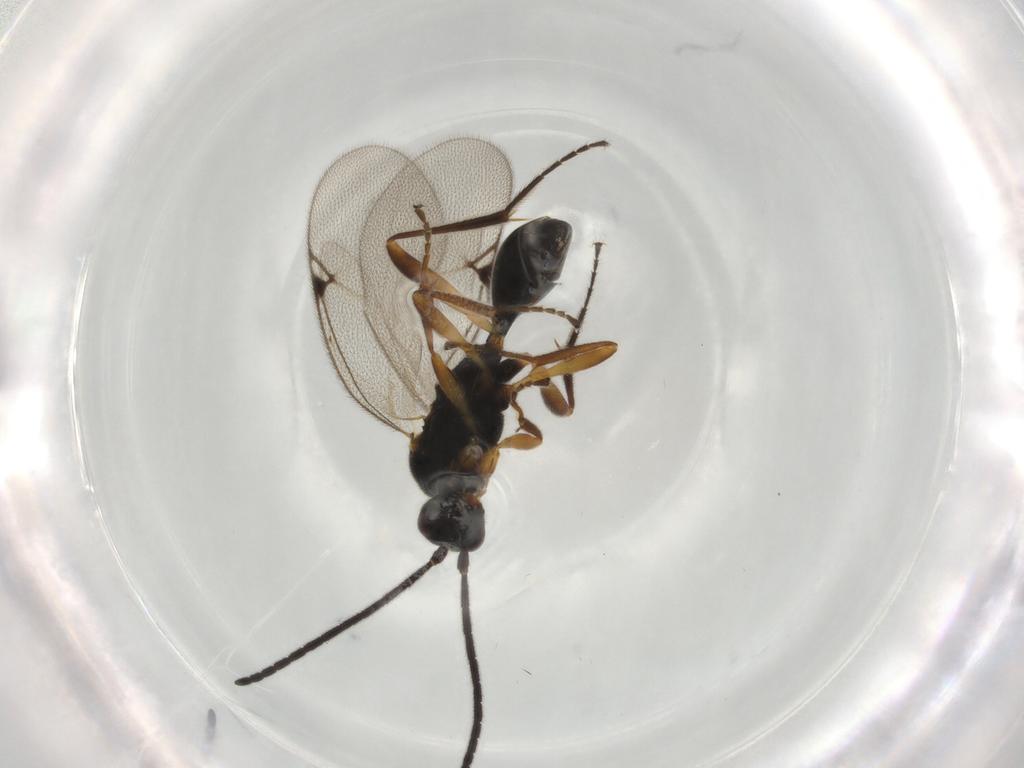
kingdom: Animalia
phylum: Arthropoda
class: Insecta
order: Hymenoptera
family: Proctotrupidae
